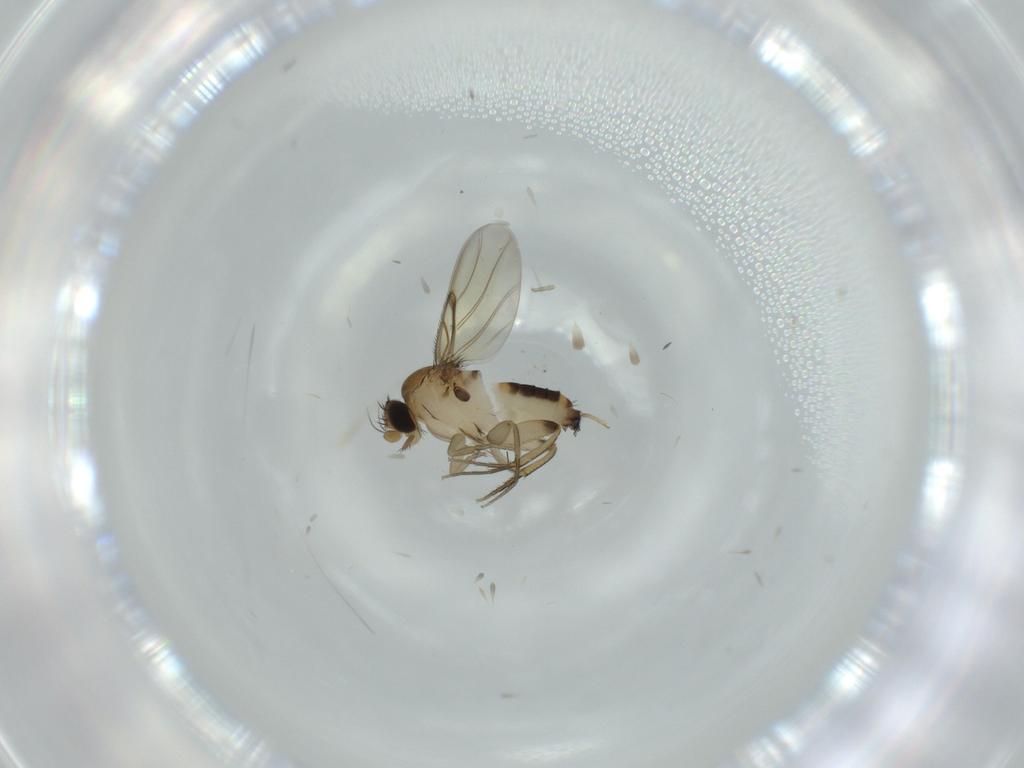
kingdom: Animalia
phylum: Arthropoda
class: Insecta
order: Diptera
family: Phoridae
